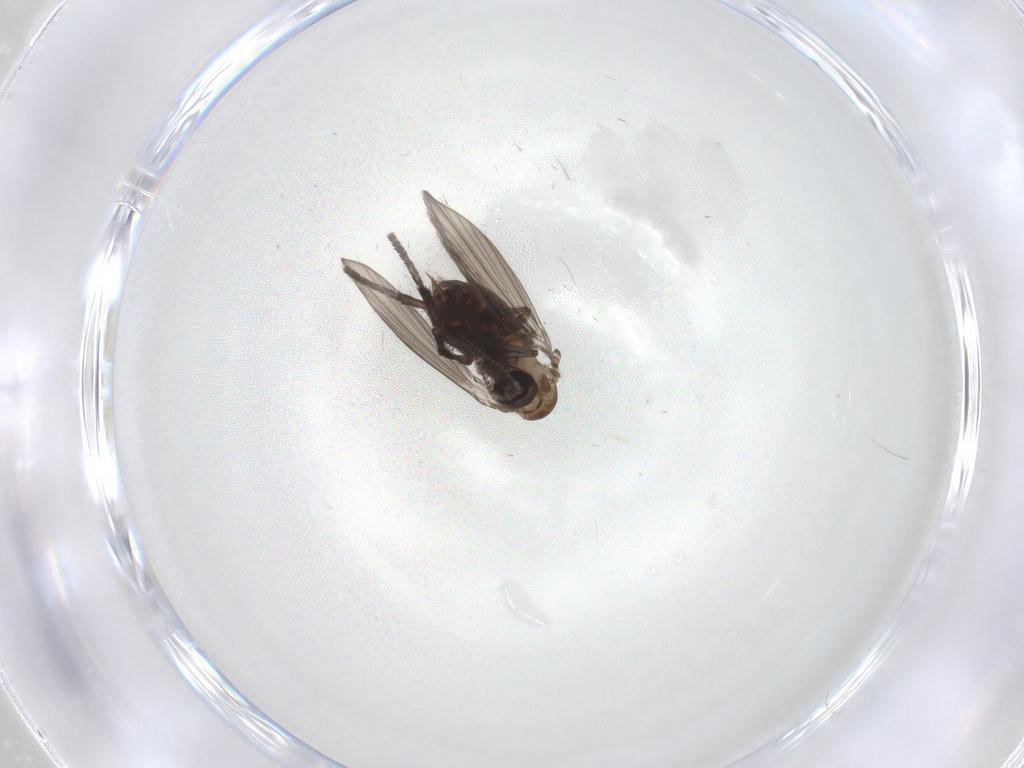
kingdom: Animalia
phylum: Arthropoda
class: Insecta
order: Diptera
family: Psychodidae
